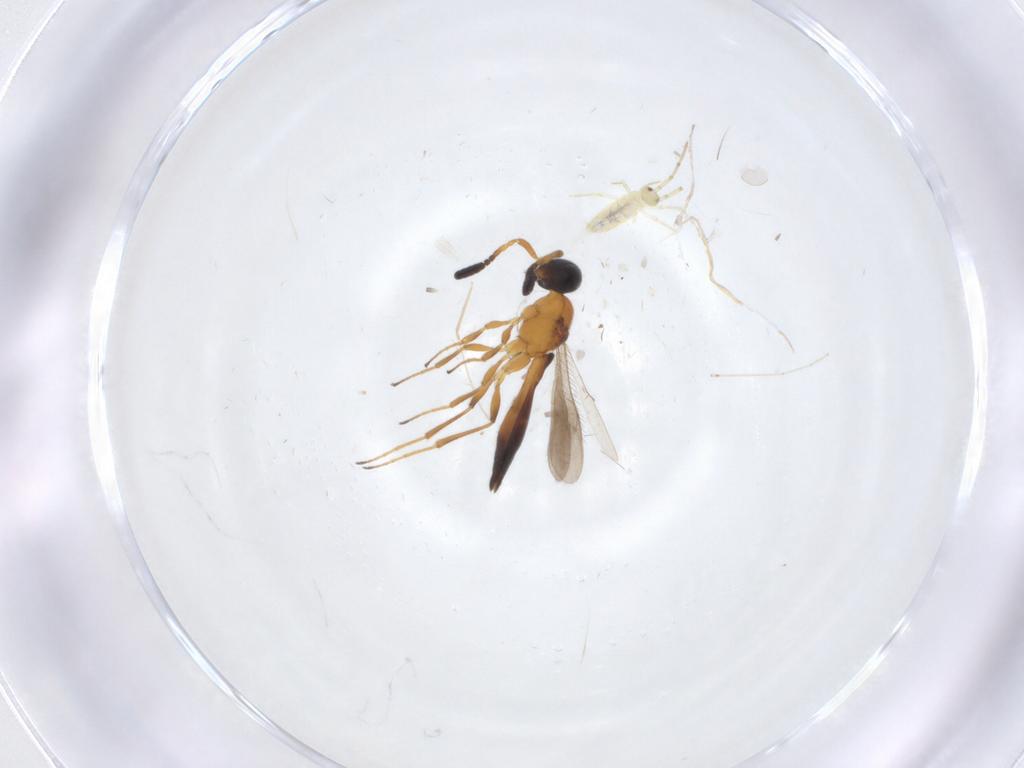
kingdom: Animalia
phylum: Arthropoda
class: Insecta
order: Hymenoptera
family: Scelionidae
